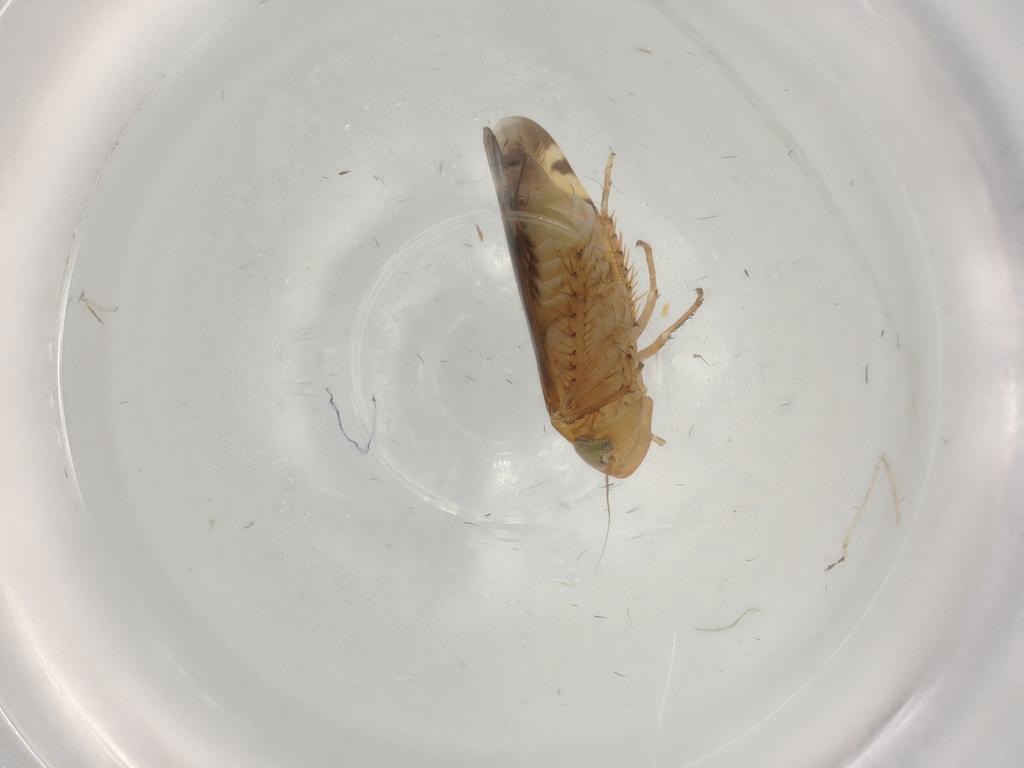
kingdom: Animalia
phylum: Arthropoda
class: Insecta
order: Hemiptera
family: Cicadellidae
